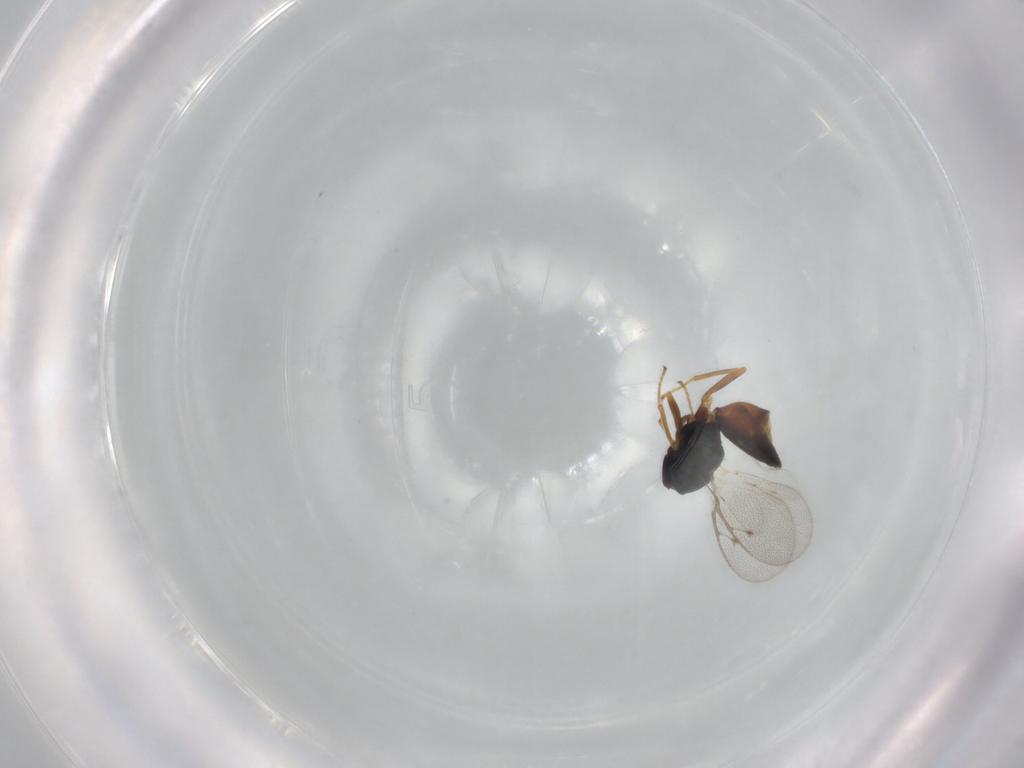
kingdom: Animalia
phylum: Arthropoda
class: Insecta
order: Hymenoptera
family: Pteromalidae
